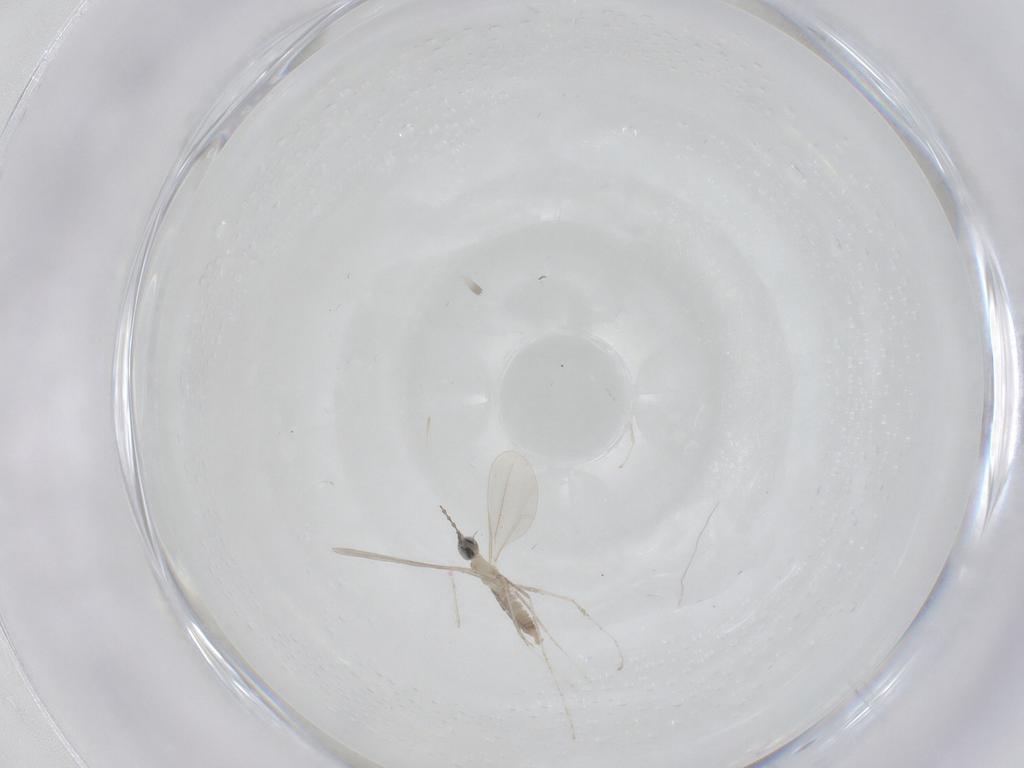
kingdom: Animalia
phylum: Arthropoda
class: Insecta
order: Diptera
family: Cecidomyiidae
